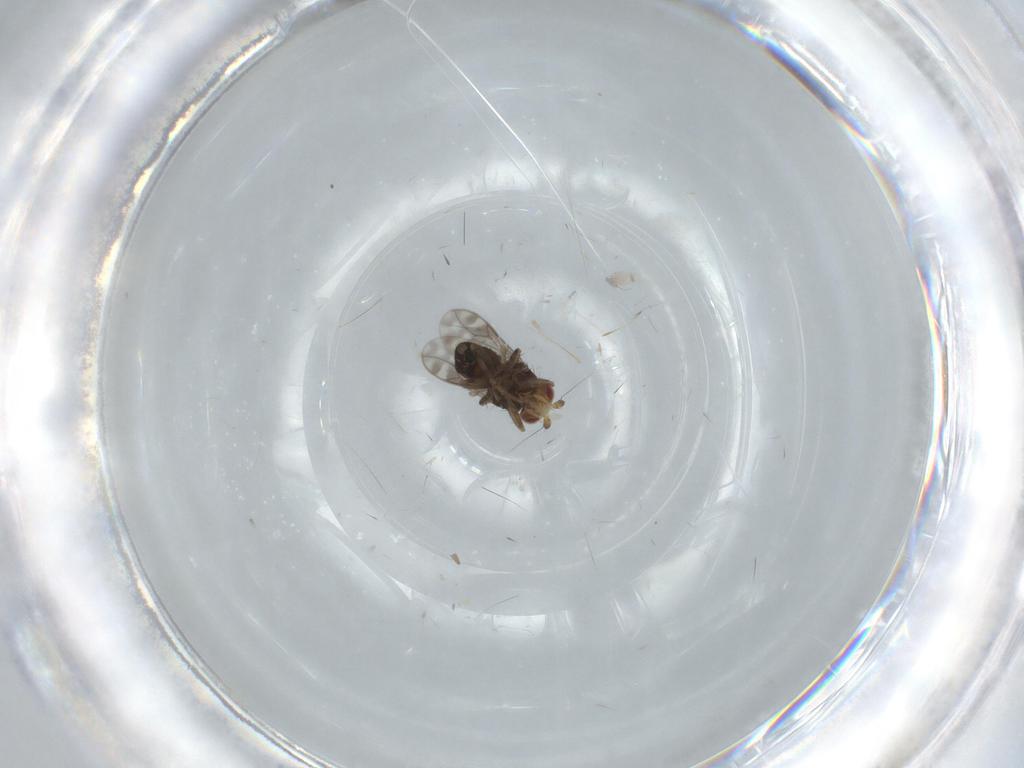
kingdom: Animalia
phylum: Arthropoda
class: Insecta
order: Diptera
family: Sphaeroceridae
